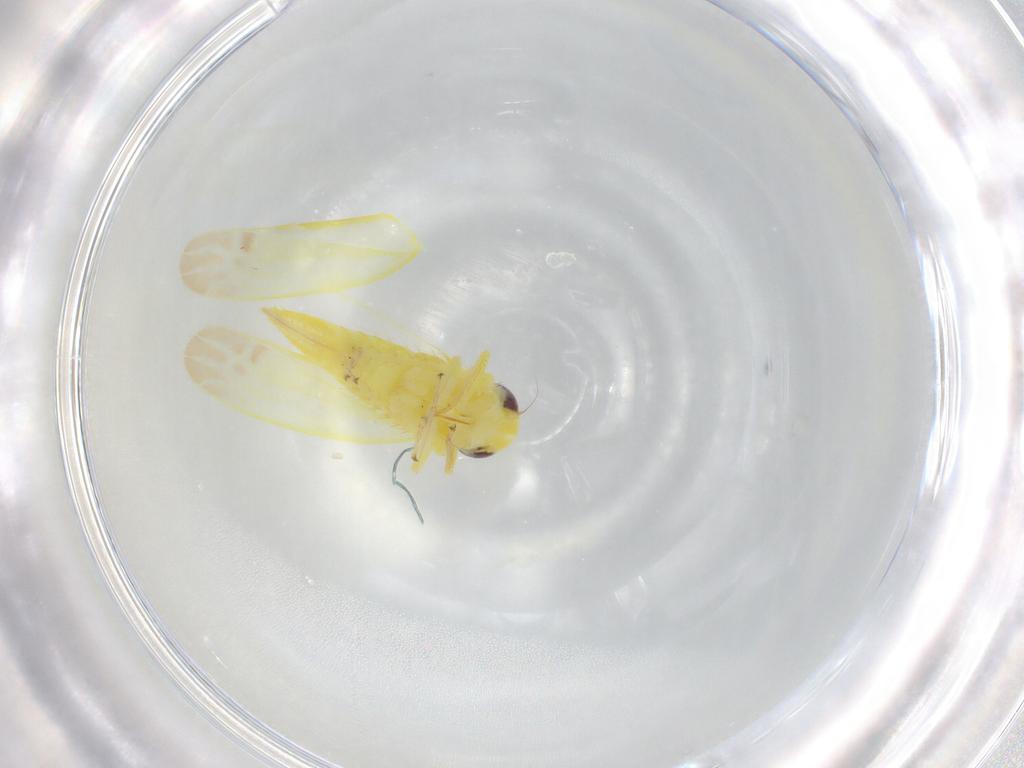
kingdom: Animalia
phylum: Arthropoda
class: Insecta
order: Hemiptera
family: Cicadellidae
